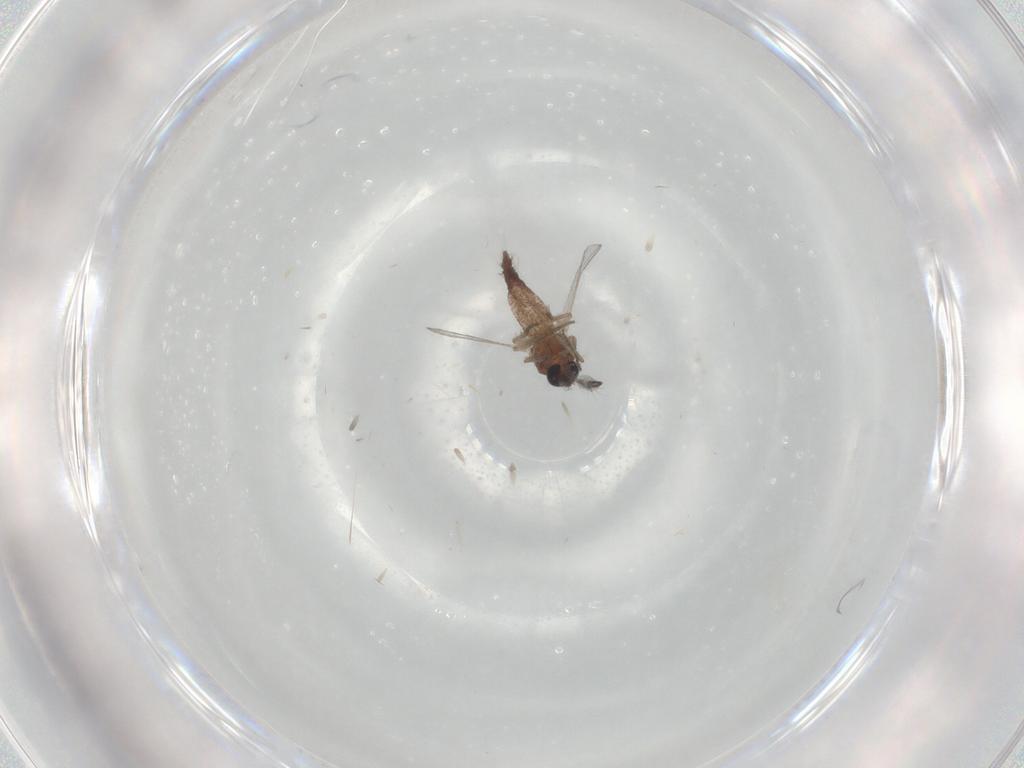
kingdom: Animalia
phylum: Arthropoda
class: Insecta
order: Diptera
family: Ceratopogonidae
